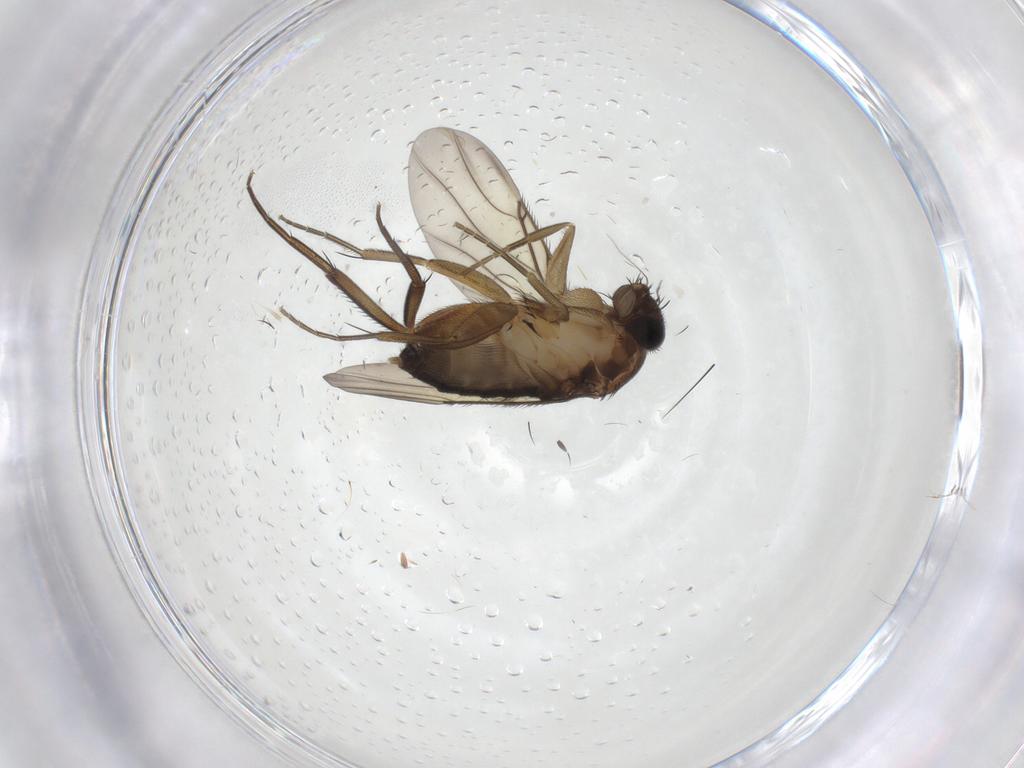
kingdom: Animalia
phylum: Arthropoda
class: Insecta
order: Diptera
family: Phoridae
